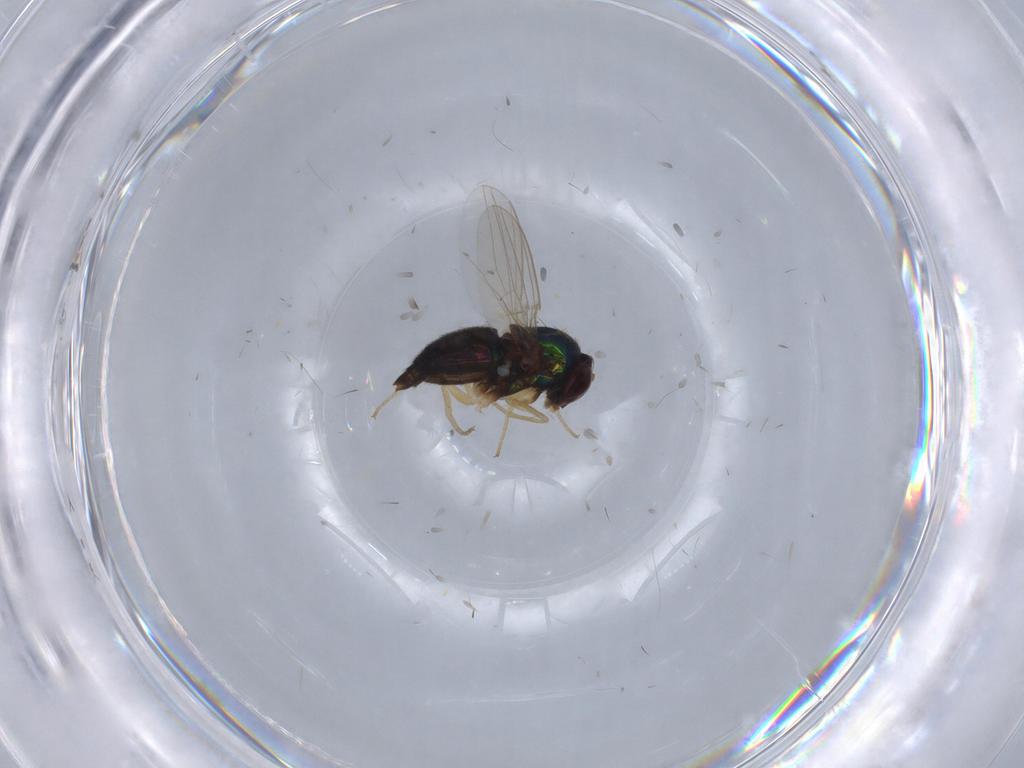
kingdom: Animalia
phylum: Arthropoda
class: Insecta
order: Diptera
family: Dolichopodidae
